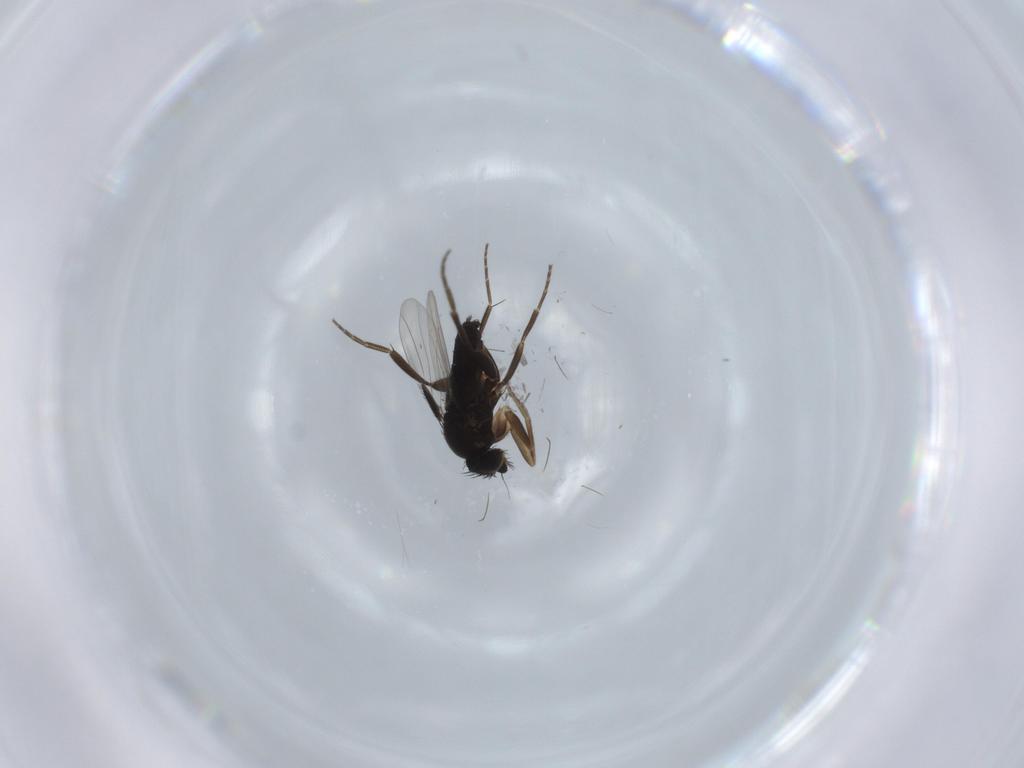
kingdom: Animalia
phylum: Arthropoda
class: Insecta
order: Diptera
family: Phoridae
